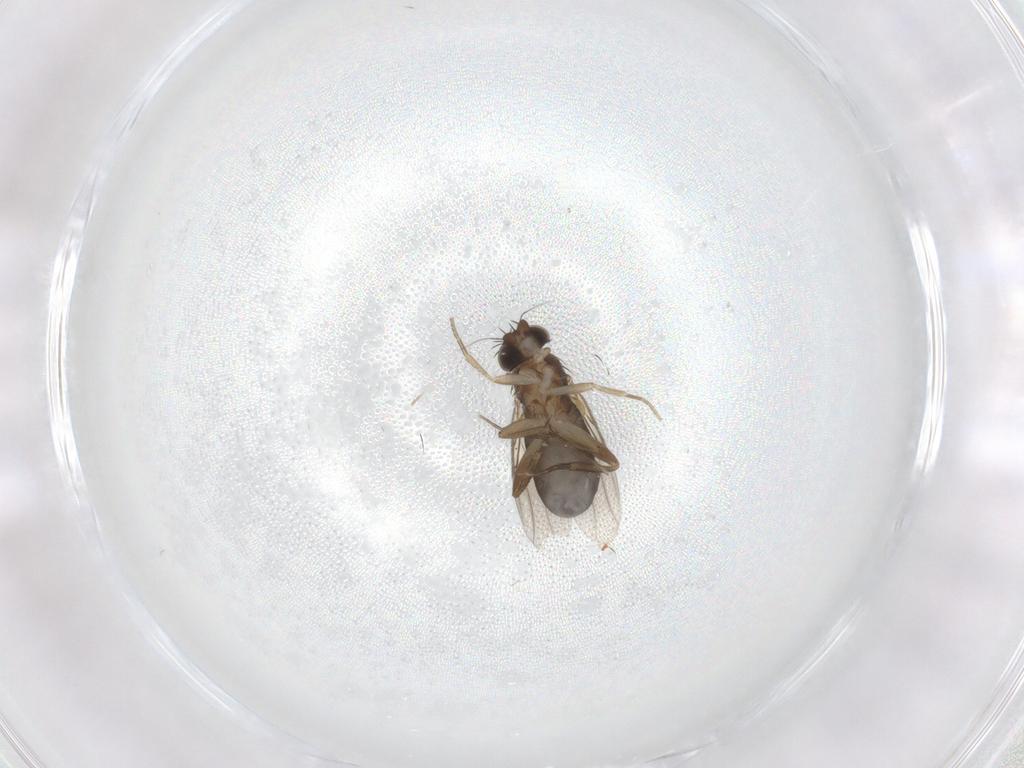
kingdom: Animalia
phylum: Arthropoda
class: Insecta
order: Diptera
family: Phoridae
